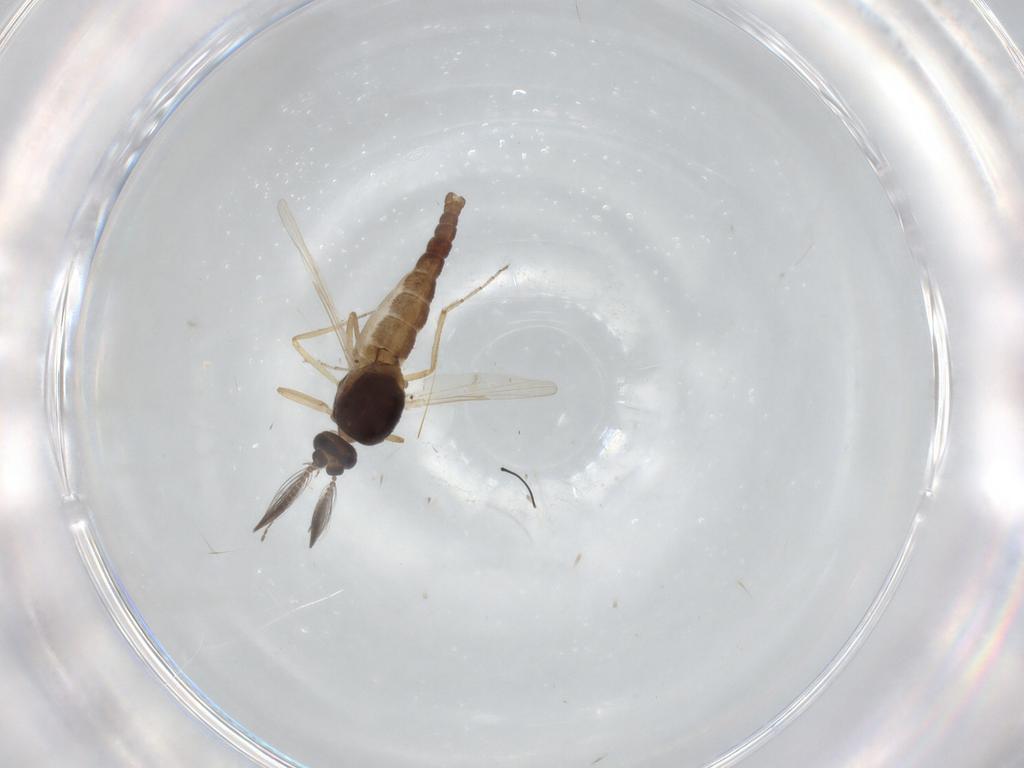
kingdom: Animalia
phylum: Arthropoda
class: Insecta
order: Diptera
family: Ceratopogonidae
